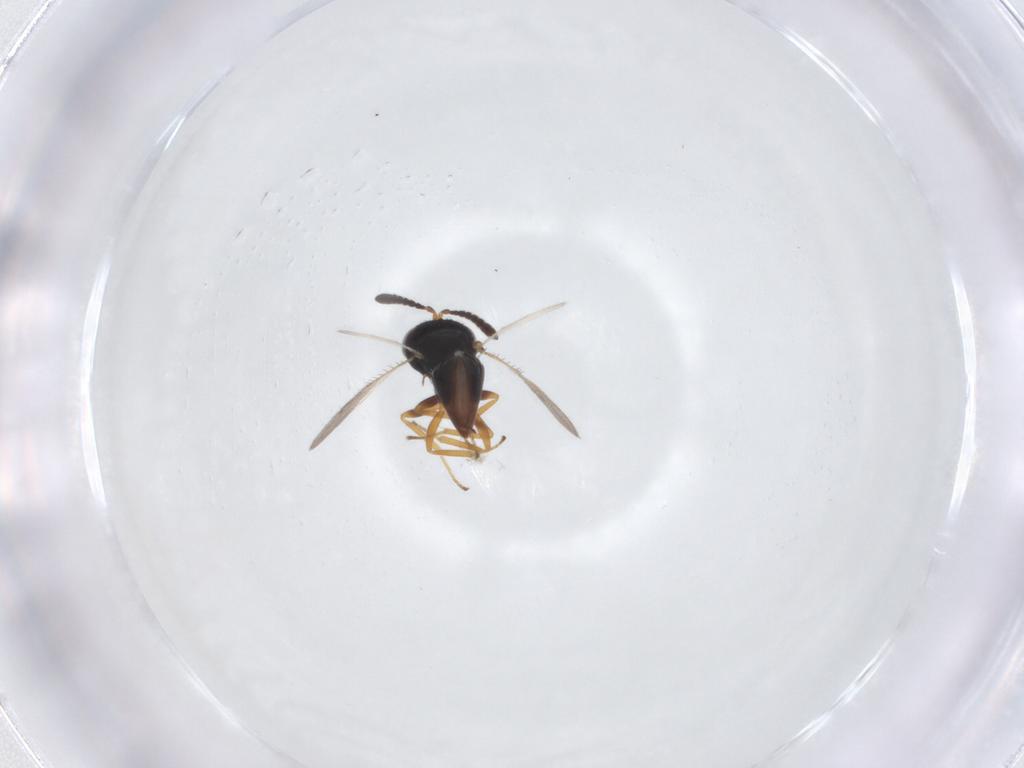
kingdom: Animalia
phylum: Arthropoda
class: Insecta
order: Hymenoptera
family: Pteromalidae
